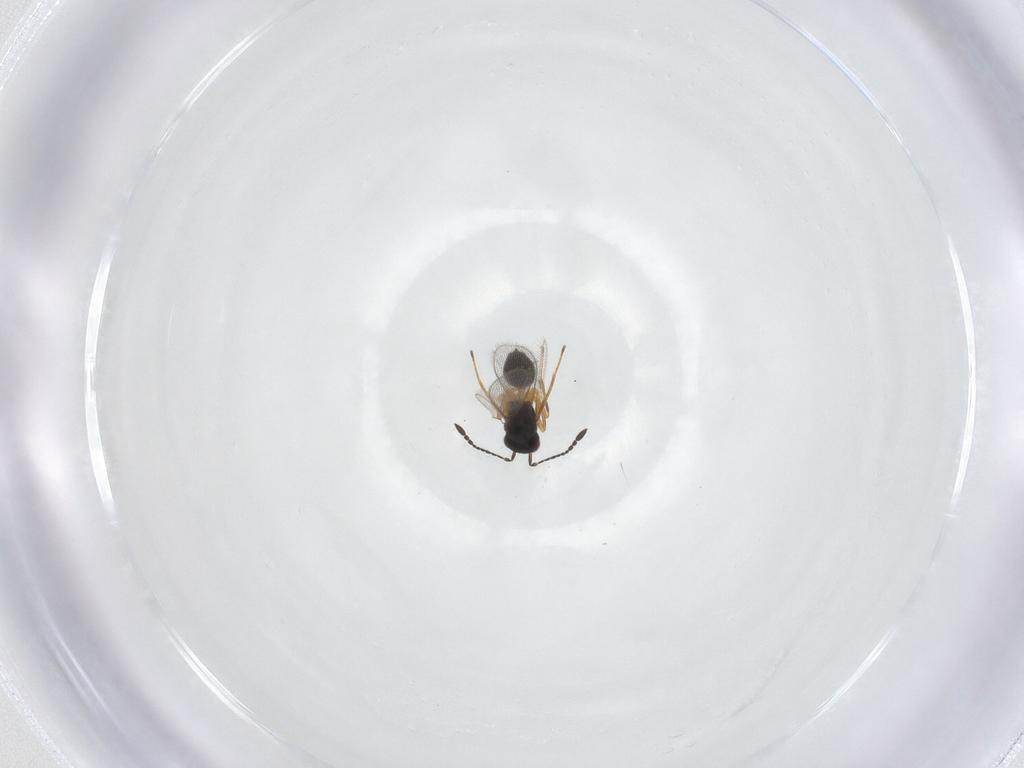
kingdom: Animalia
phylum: Arthropoda
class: Insecta
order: Hymenoptera
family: Mymaridae
